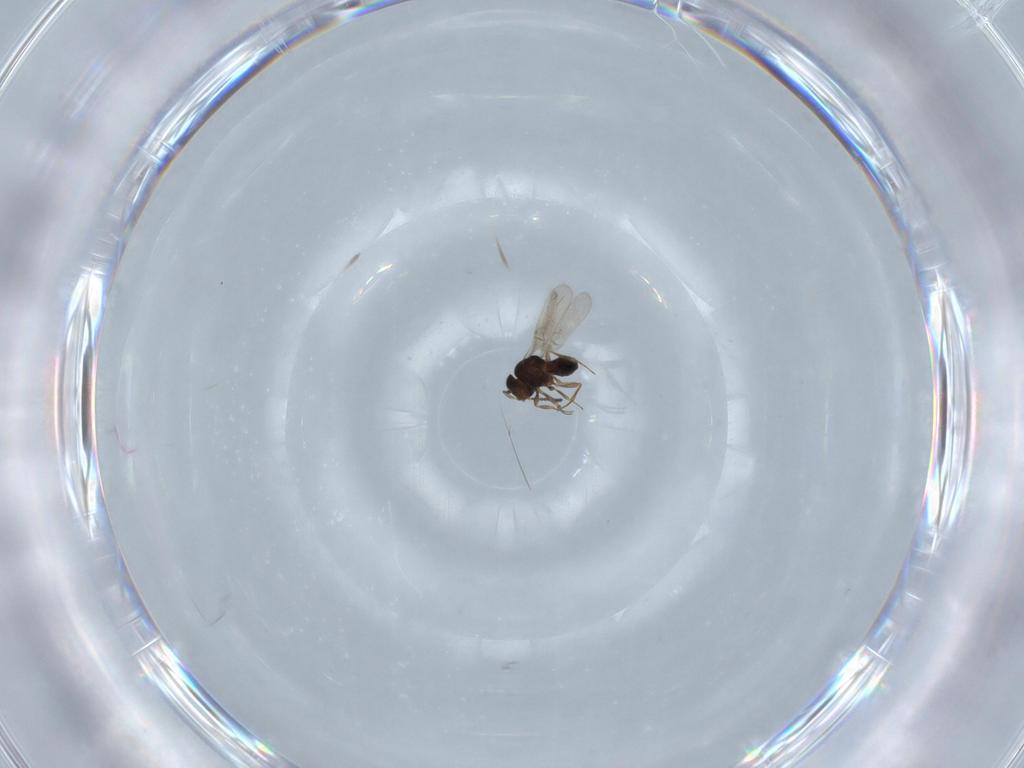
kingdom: Animalia
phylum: Arthropoda
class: Insecta
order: Hymenoptera
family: Scelionidae
